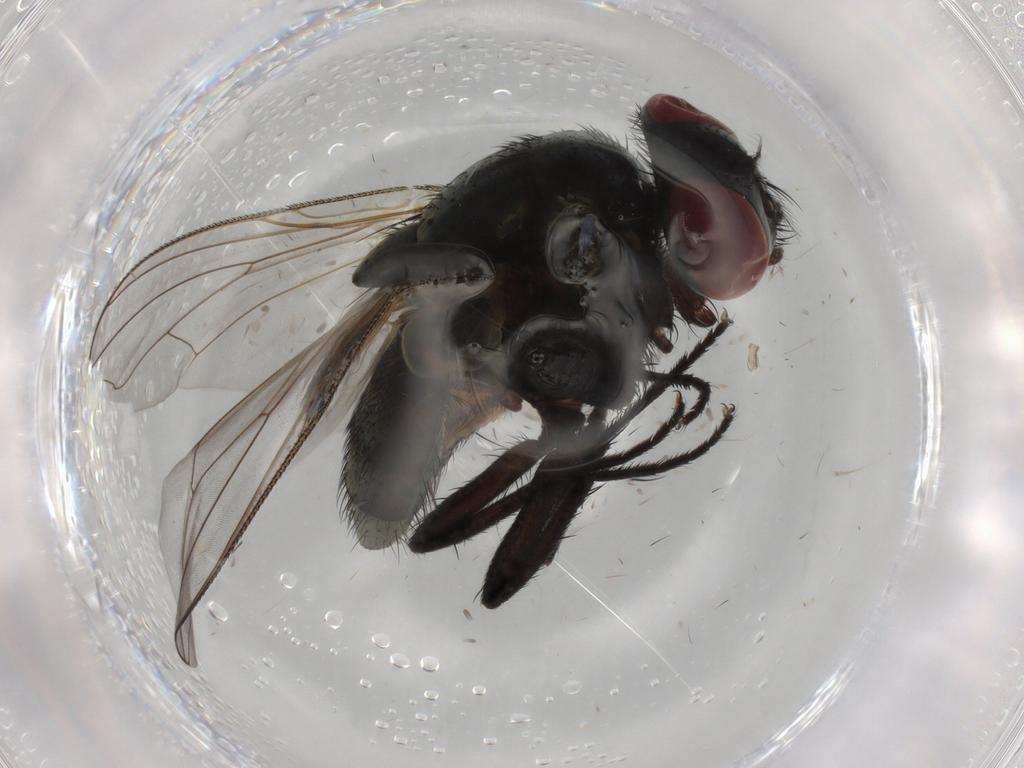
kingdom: Animalia
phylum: Arthropoda
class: Insecta
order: Diptera
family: Muscidae
